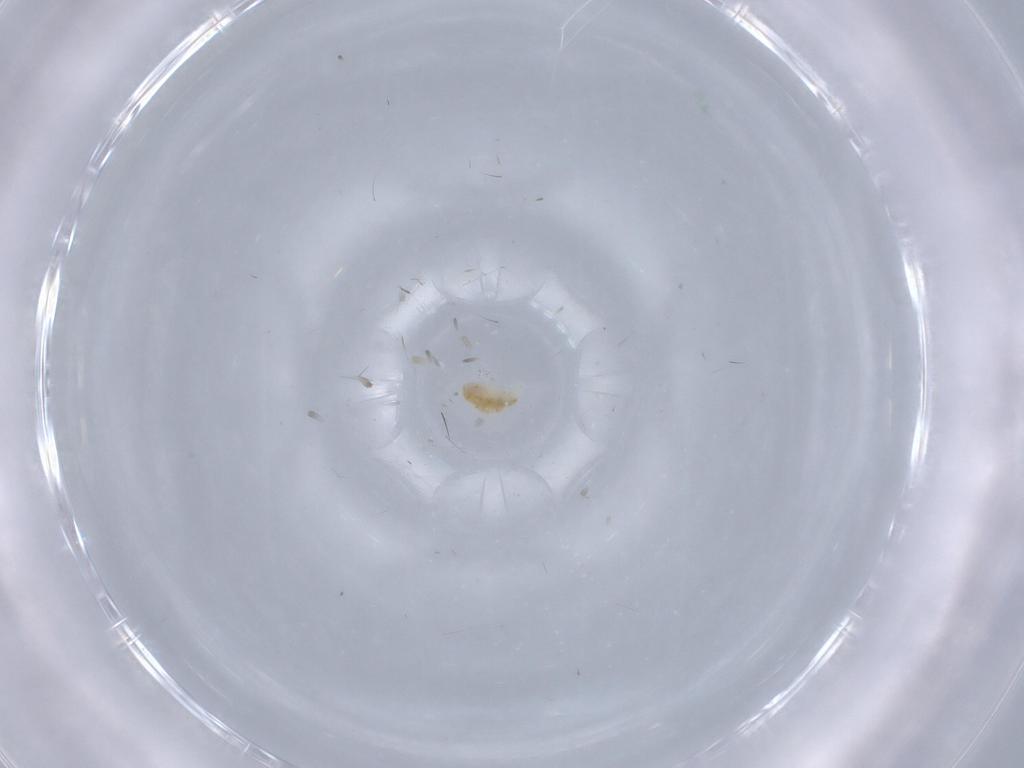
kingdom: Animalia
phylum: Arthropoda
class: Arachnida
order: Trombidiformes
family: Eupodidae
